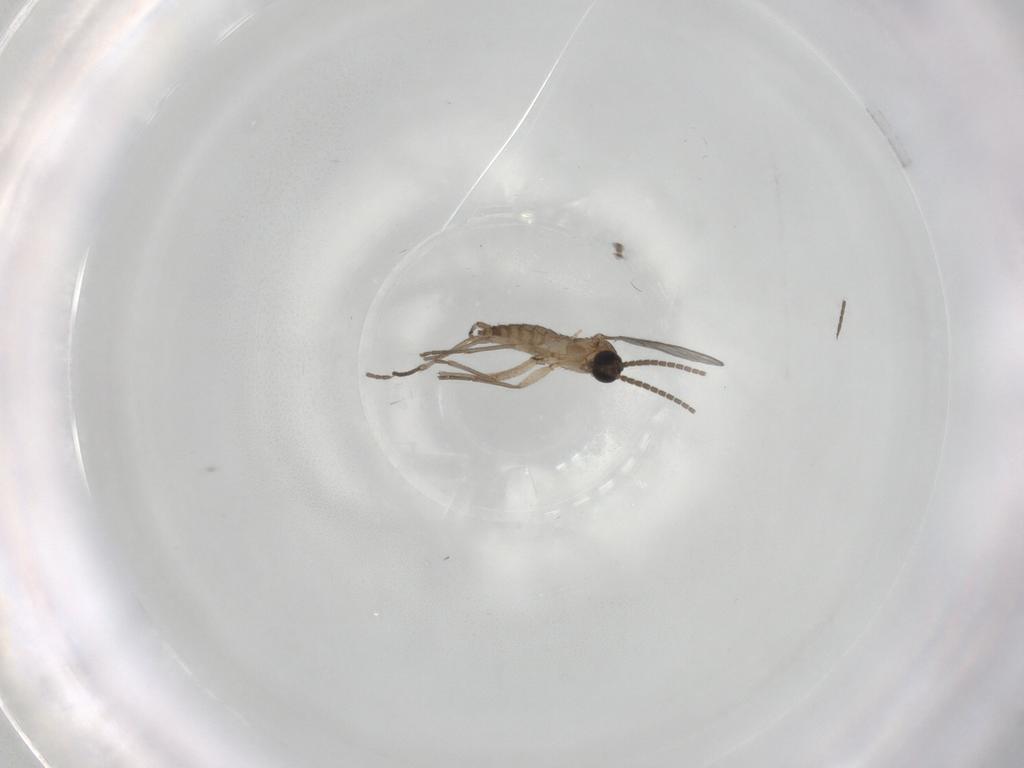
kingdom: Animalia
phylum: Arthropoda
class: Insecta
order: Diptera
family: Sciaridae
